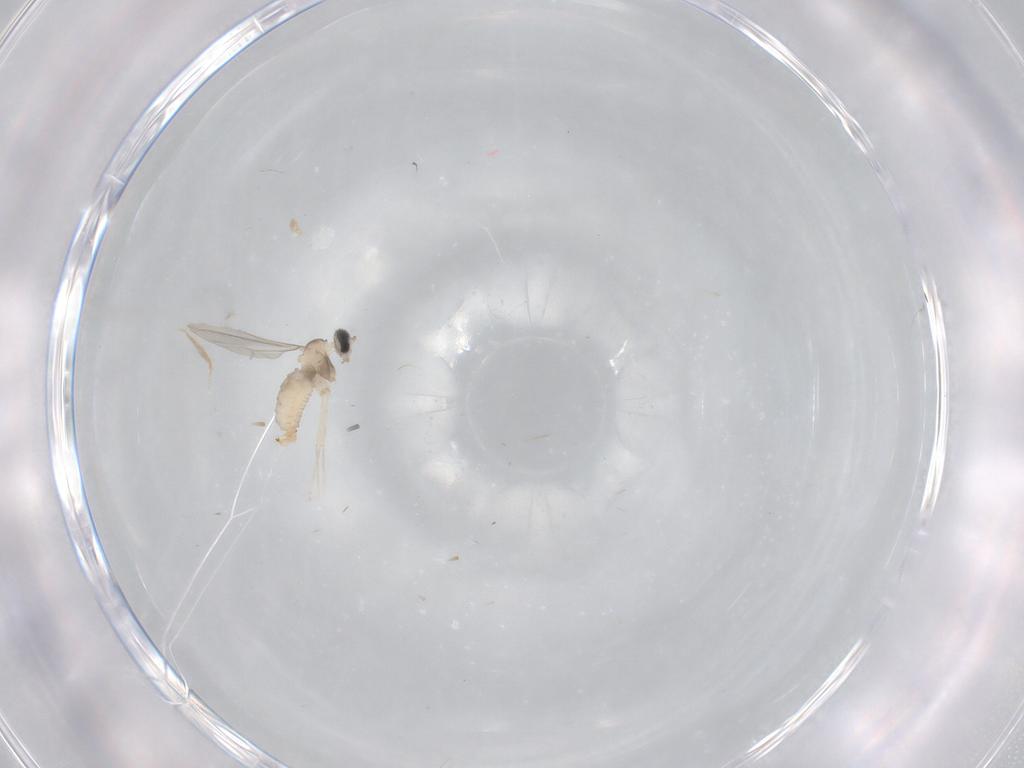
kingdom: Animalia
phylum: Arthropoda
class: Insecta
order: Diptera
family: Cecidomyiidae
